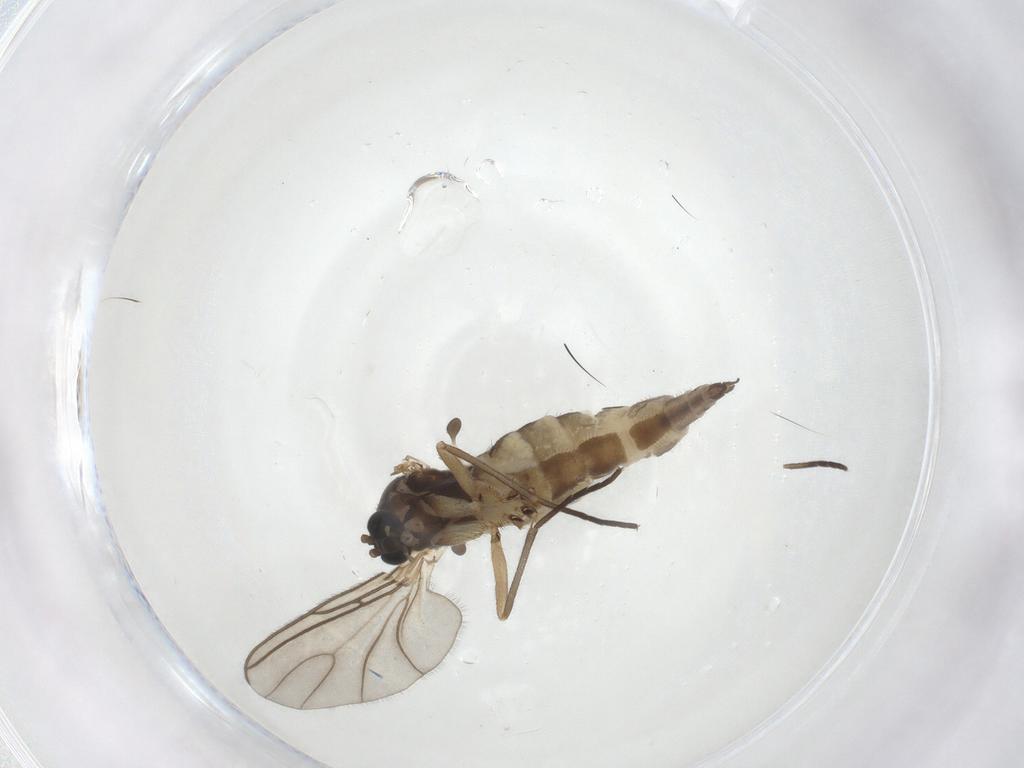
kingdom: Animalia
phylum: Arthropoda
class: Insecta
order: Diptera
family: Sciaridae
